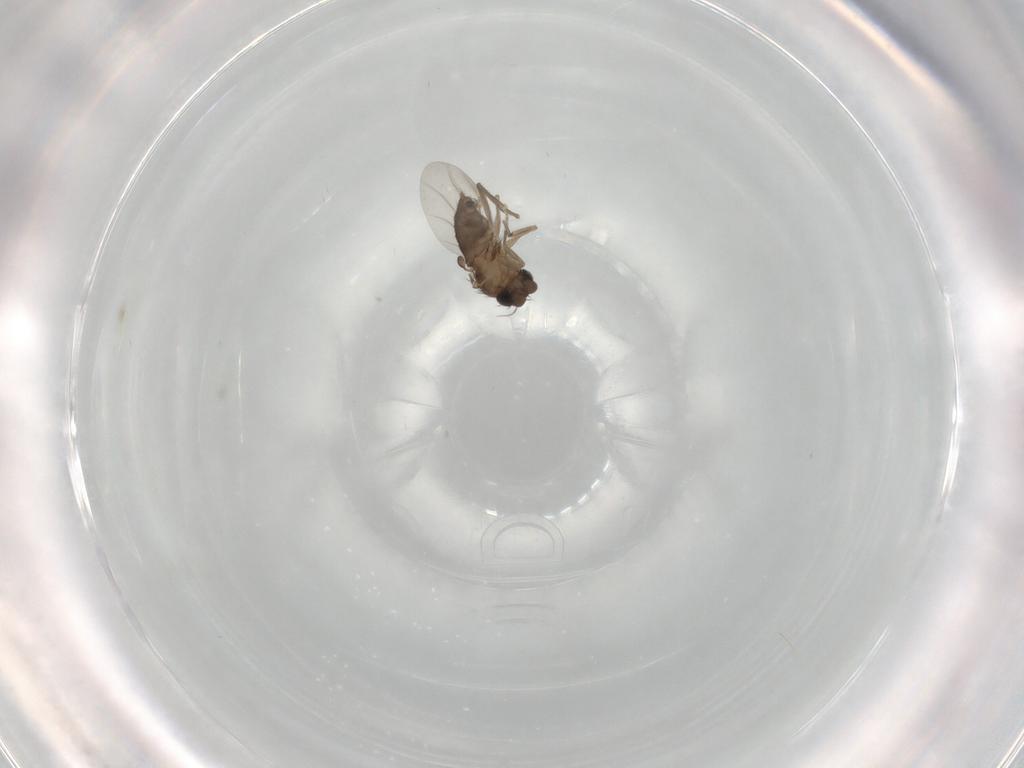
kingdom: Animalia
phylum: Arthropoda
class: Insecta
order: Diptera
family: Phoridae
